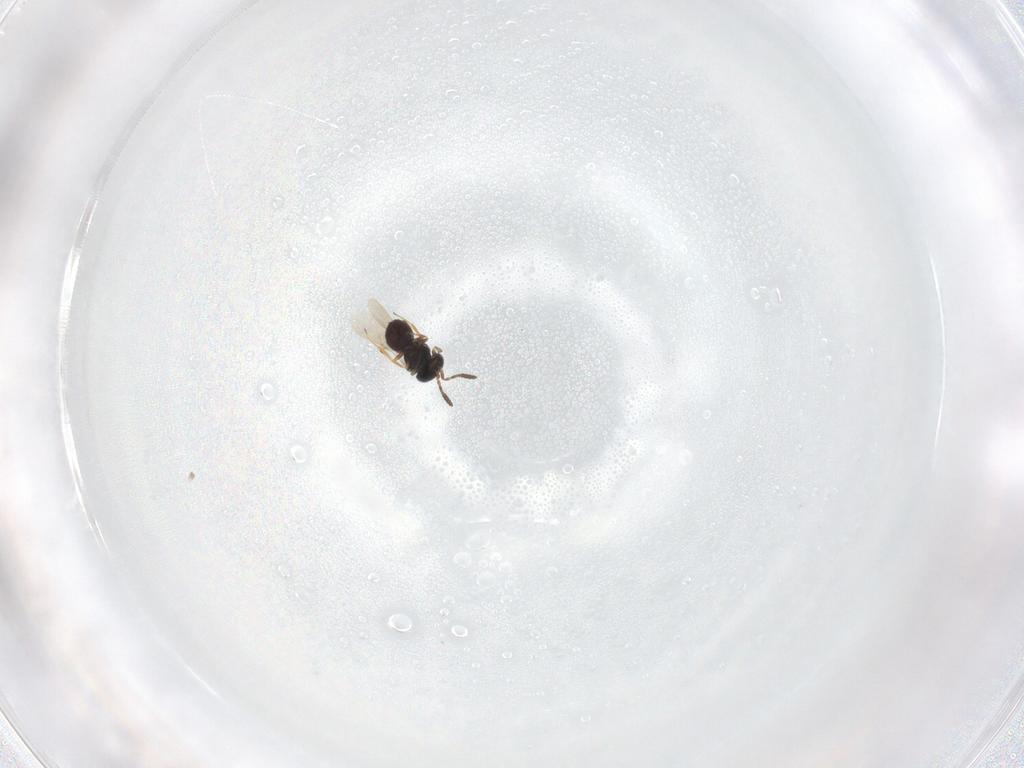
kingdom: Animalia
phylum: Arthropoda
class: Insecta
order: Hymenoptera
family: Scelionidae
